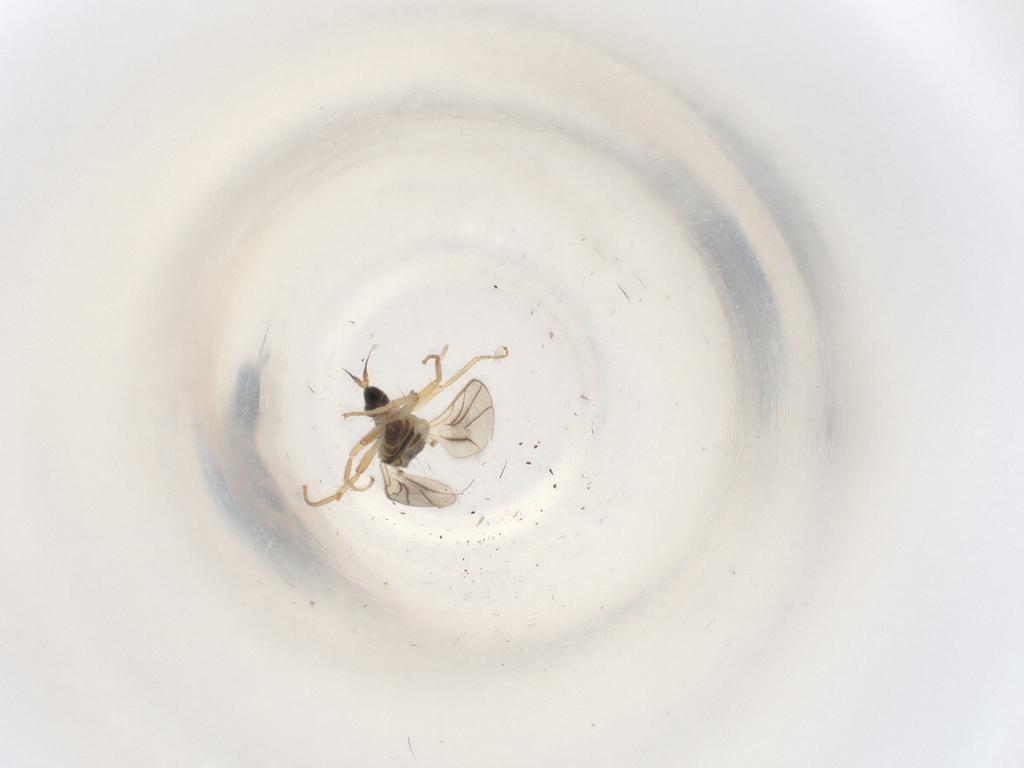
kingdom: Animalia
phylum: Arthropoda
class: Insecta
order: Diptera
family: Hybotidae
